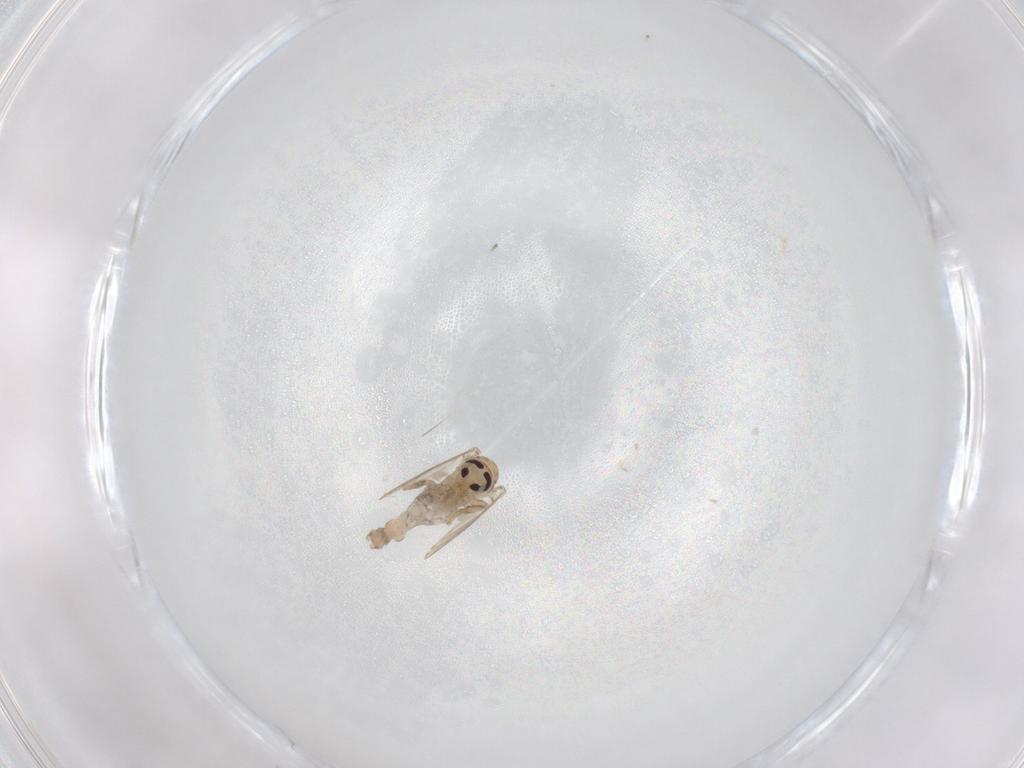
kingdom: Animalia
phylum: Arthropoda
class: Insecta
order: Diptera
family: Psychodidae
